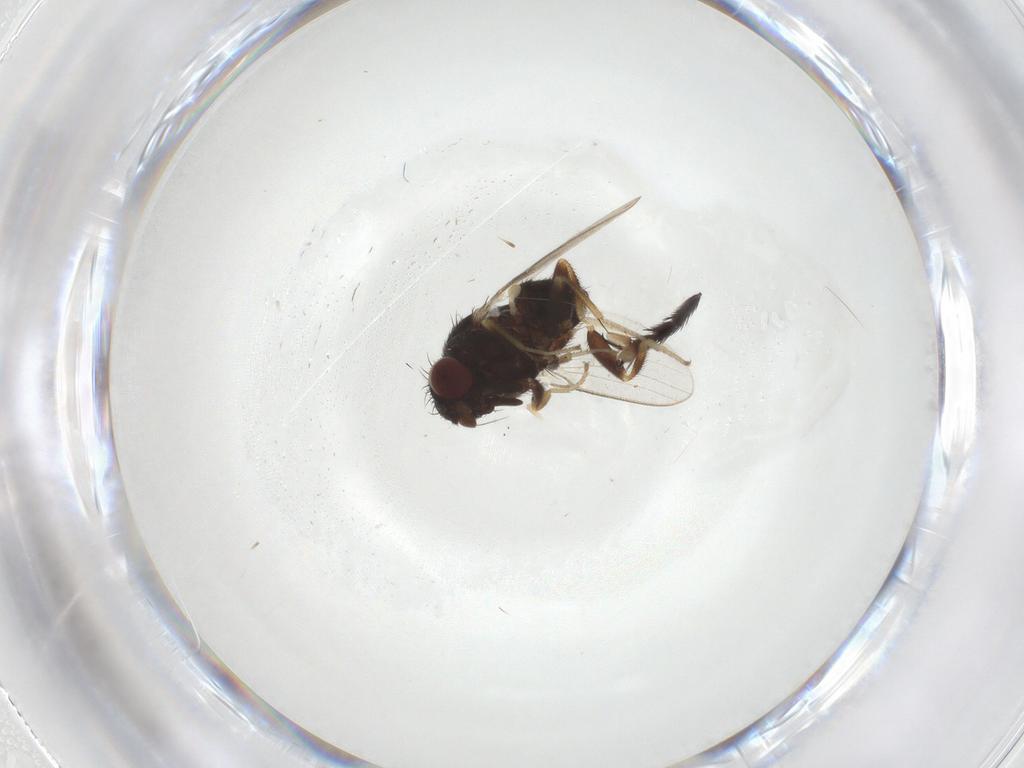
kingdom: Animalia
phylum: Arthropoda
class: Insecta
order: Diptera
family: Milichiidae
